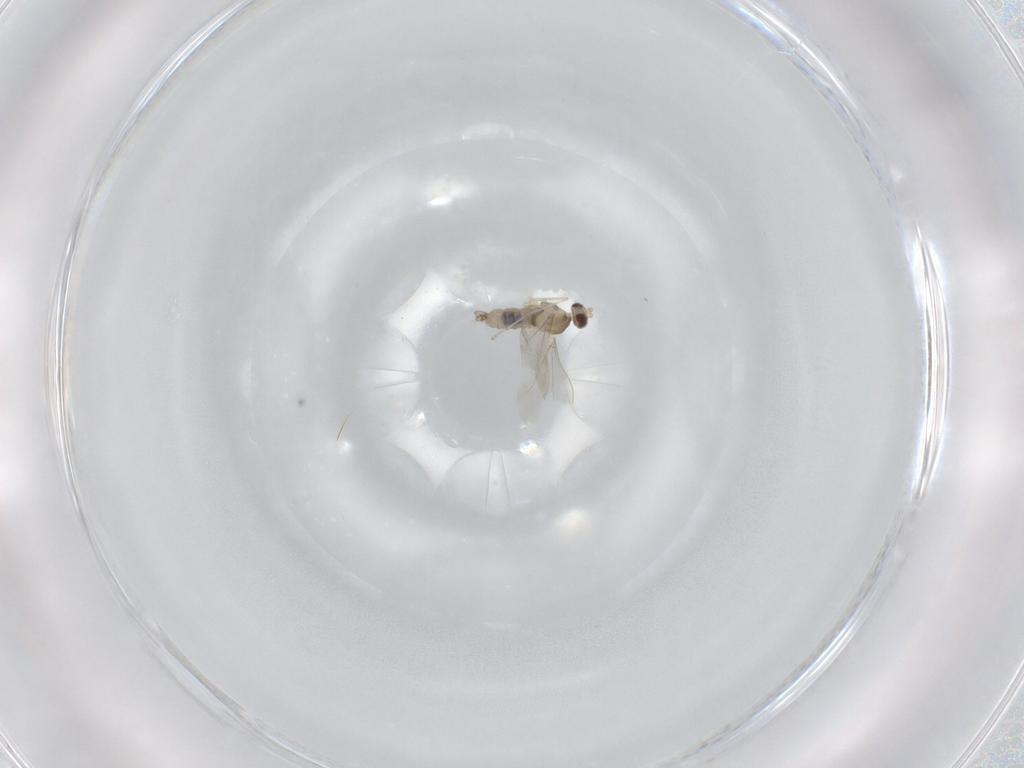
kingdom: Animalia
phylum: Arthropoda
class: Insecta
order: Diptera
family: Cecidomyiidae
